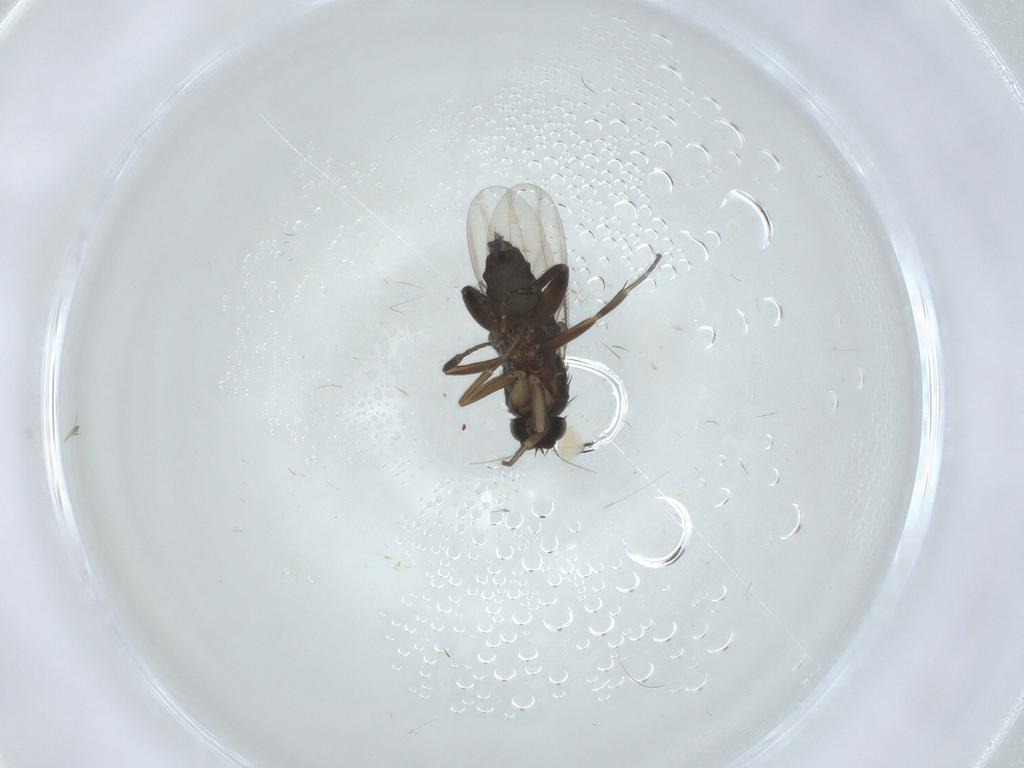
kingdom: Animalia
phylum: Arthropoda
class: Insecta
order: Diptera
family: Phoridae
